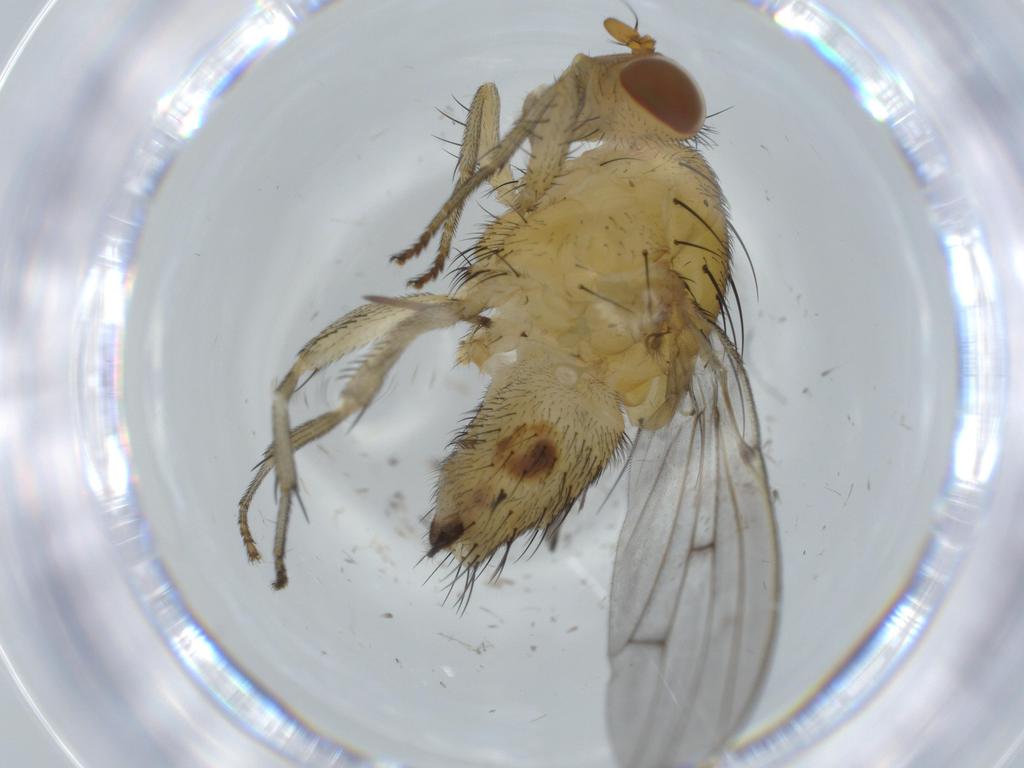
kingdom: Animalia
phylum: Arthropoda
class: Insecta
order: Diptera
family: Ceratopogonidae
